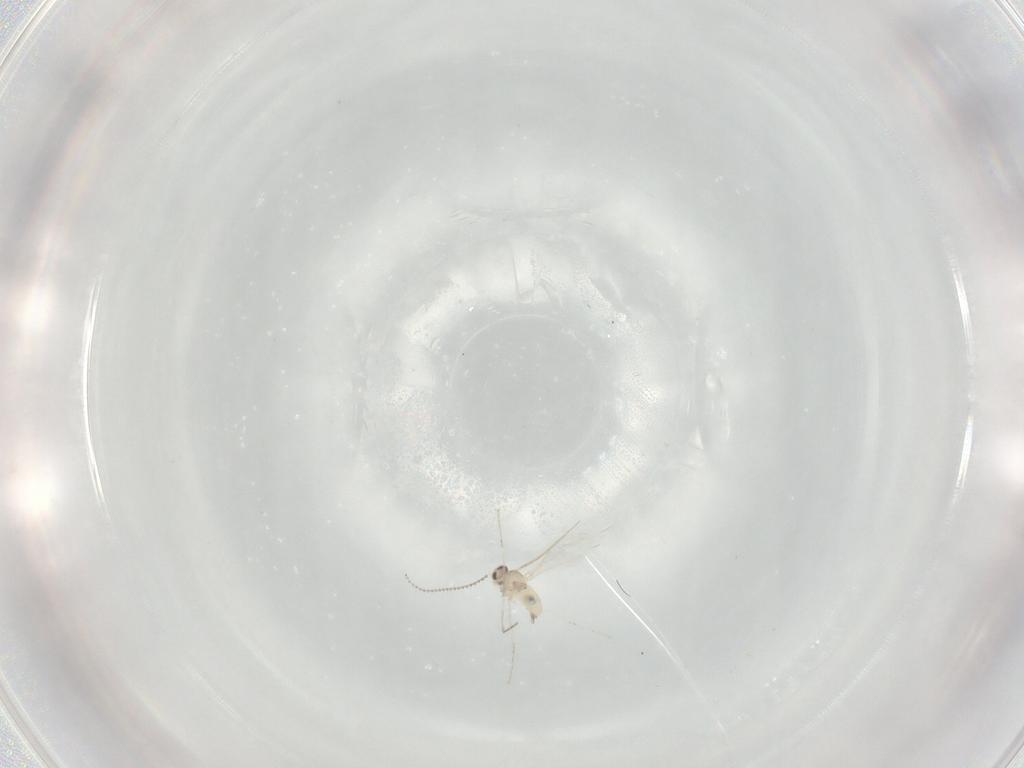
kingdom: Animalia
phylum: Arthropoda
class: Insecta
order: Diptera
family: Cecidomyiidae
